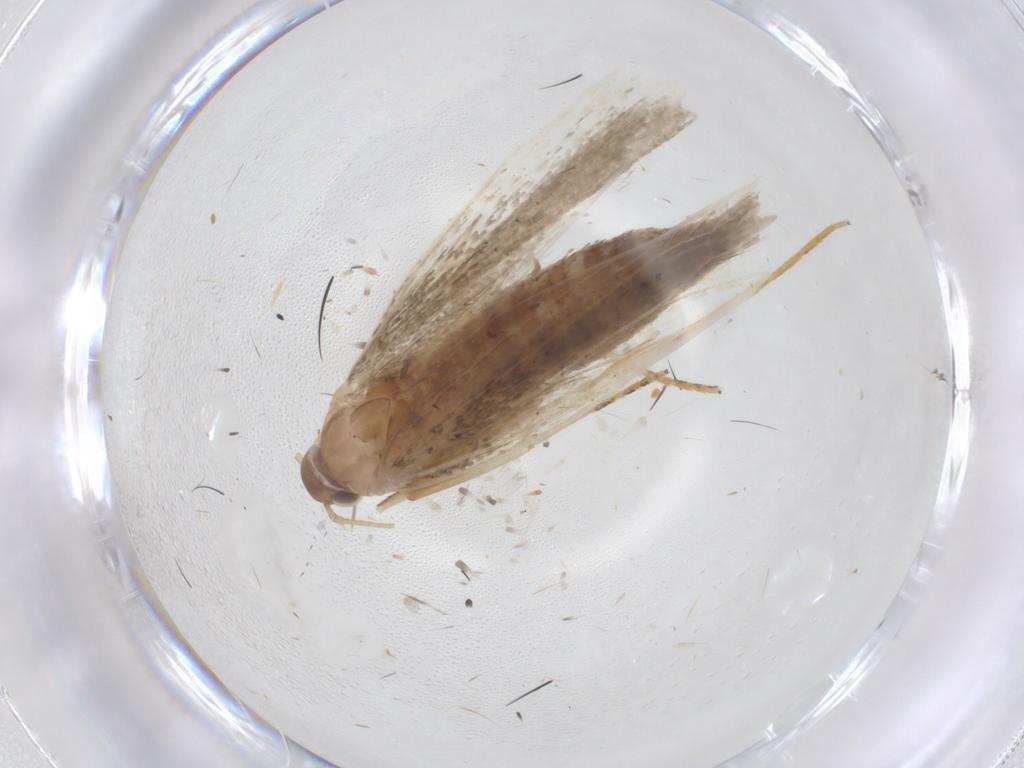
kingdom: Animalia
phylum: Arthropoda
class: Insecta
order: Lepidoptera
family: Crambidae
